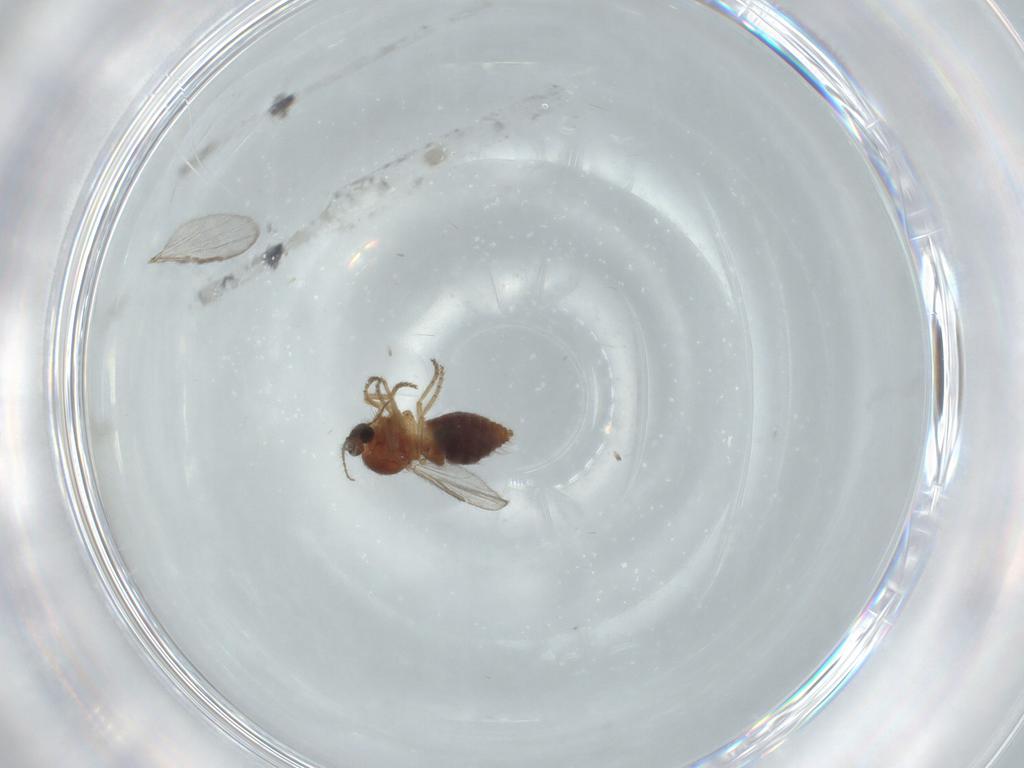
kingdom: Animalia
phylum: Arthropoda
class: Insecta
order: Diptera
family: Ceratopogonidae
